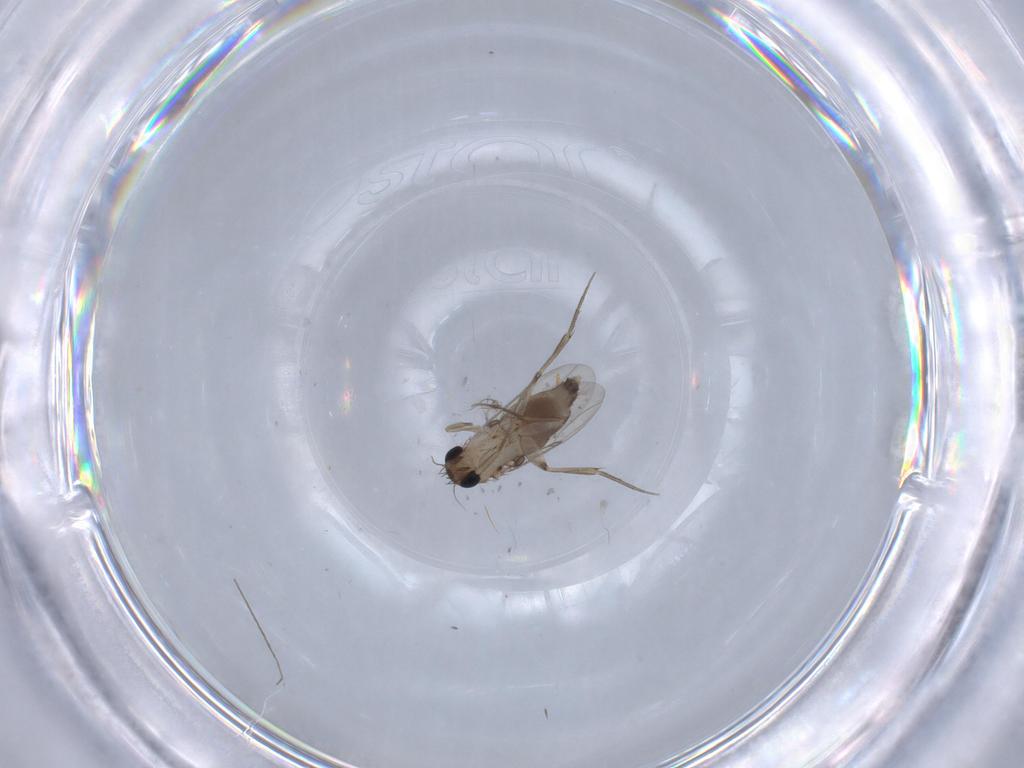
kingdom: Animalia
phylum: Arthropoda
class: Insecta
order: Diptera
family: Phoridae
